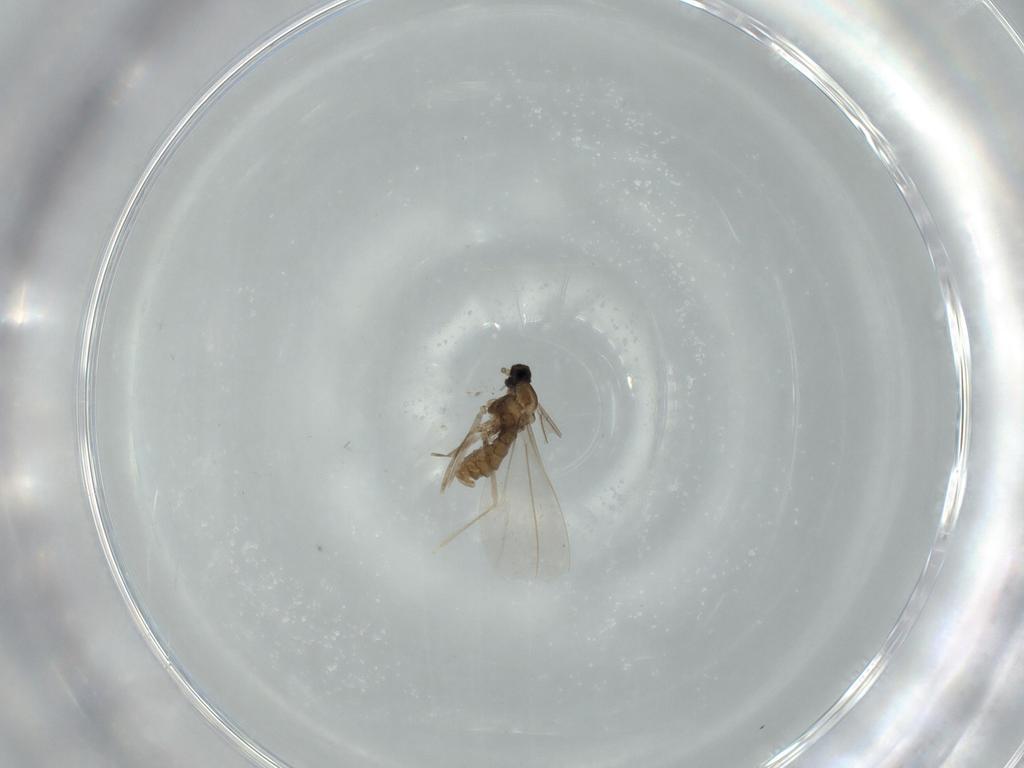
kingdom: Animalia
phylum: Arthropoda
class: Insecta
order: Diptera
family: Cecidomyiidae
